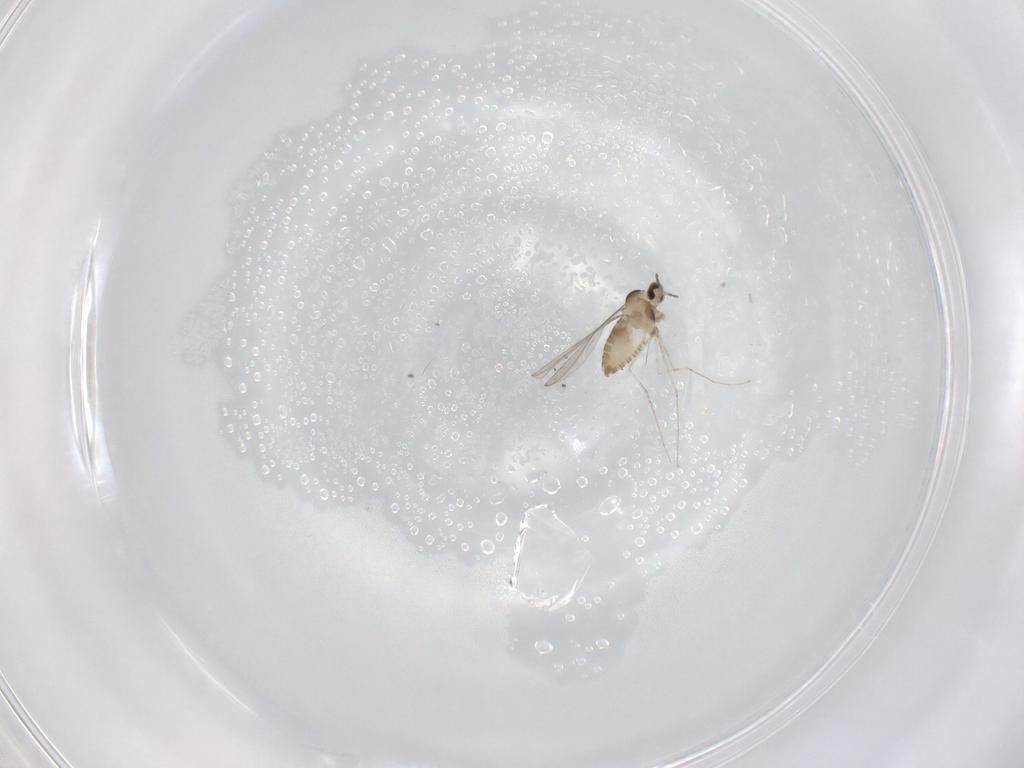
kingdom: Animalia
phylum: Arthropoda
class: Insecta
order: Diptera
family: Cecidomyiidae
